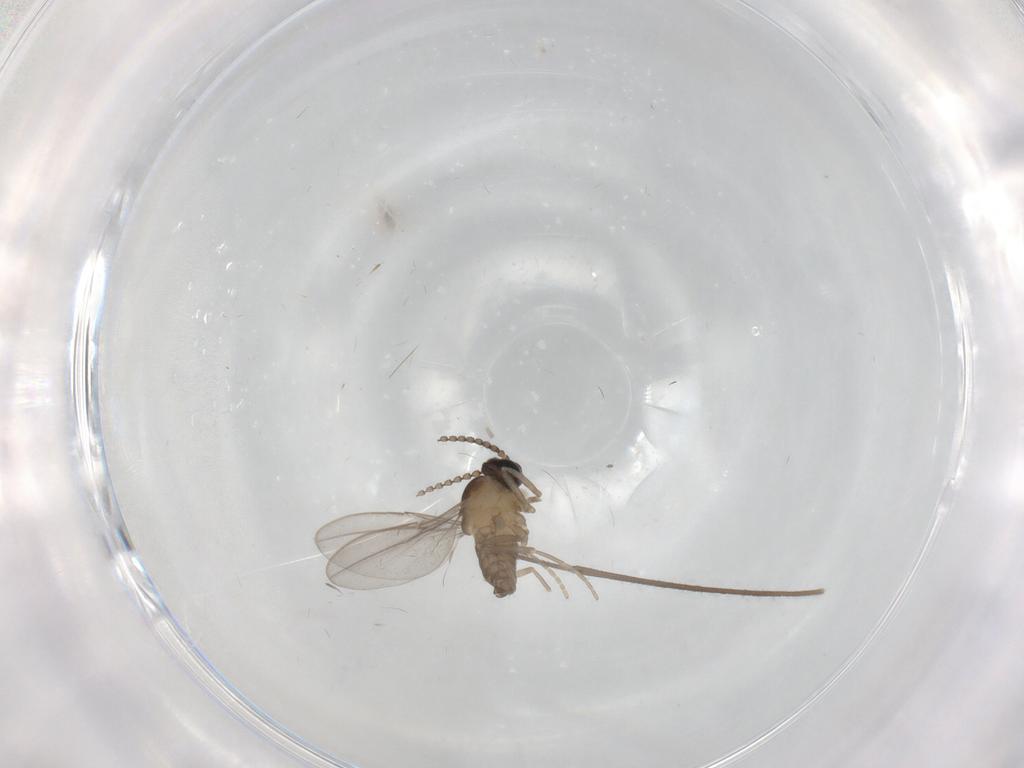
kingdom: Animalia
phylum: Arthropoda
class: Insecta
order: Diptera
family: Cecidomyiidae
